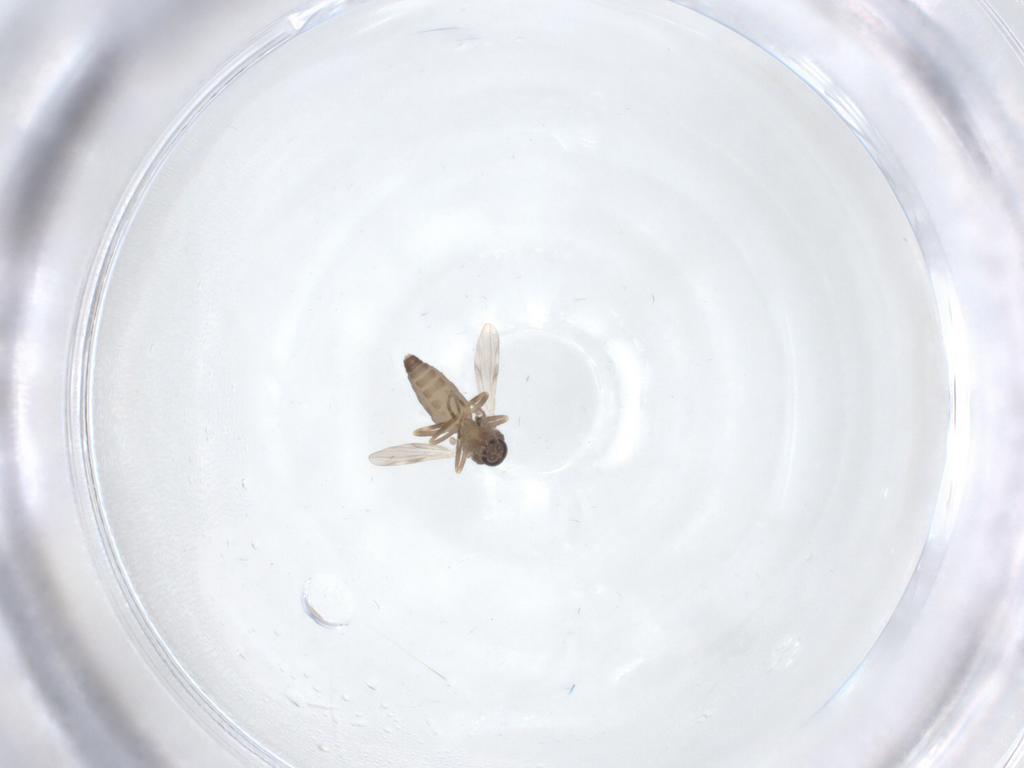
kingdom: Animalia
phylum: Arthropoda
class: Insecta
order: Diptera
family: Ceratopogonidae
